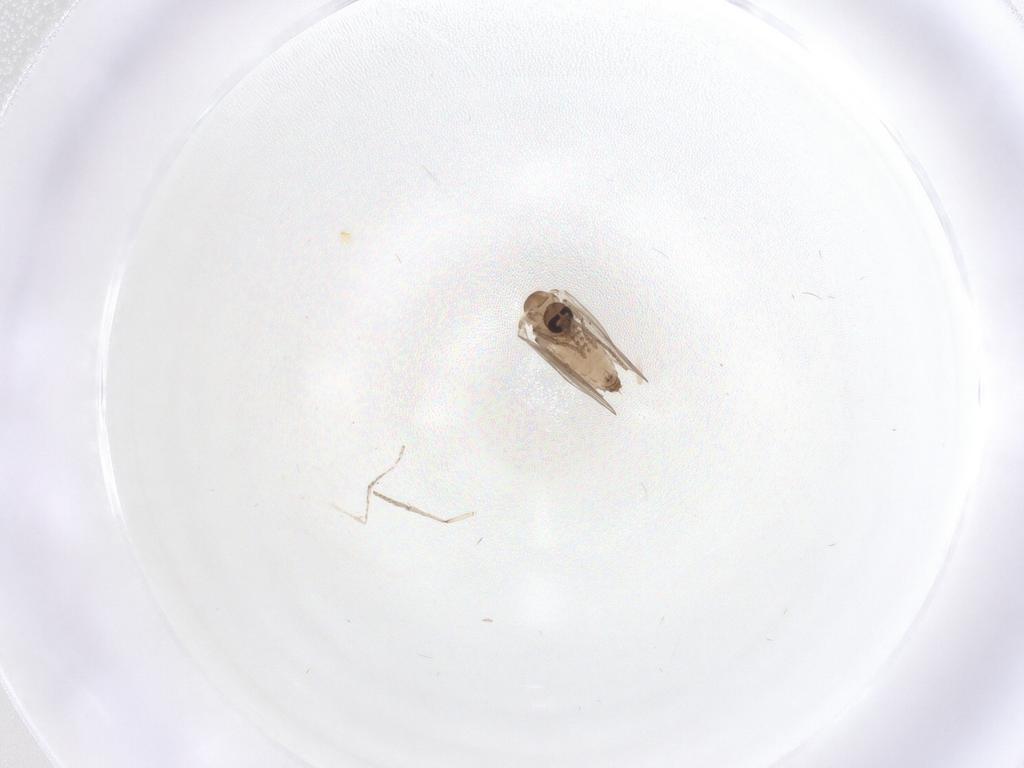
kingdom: Animalia
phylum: Arthropoda
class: Insecta
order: Diptera
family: Psychodidae
